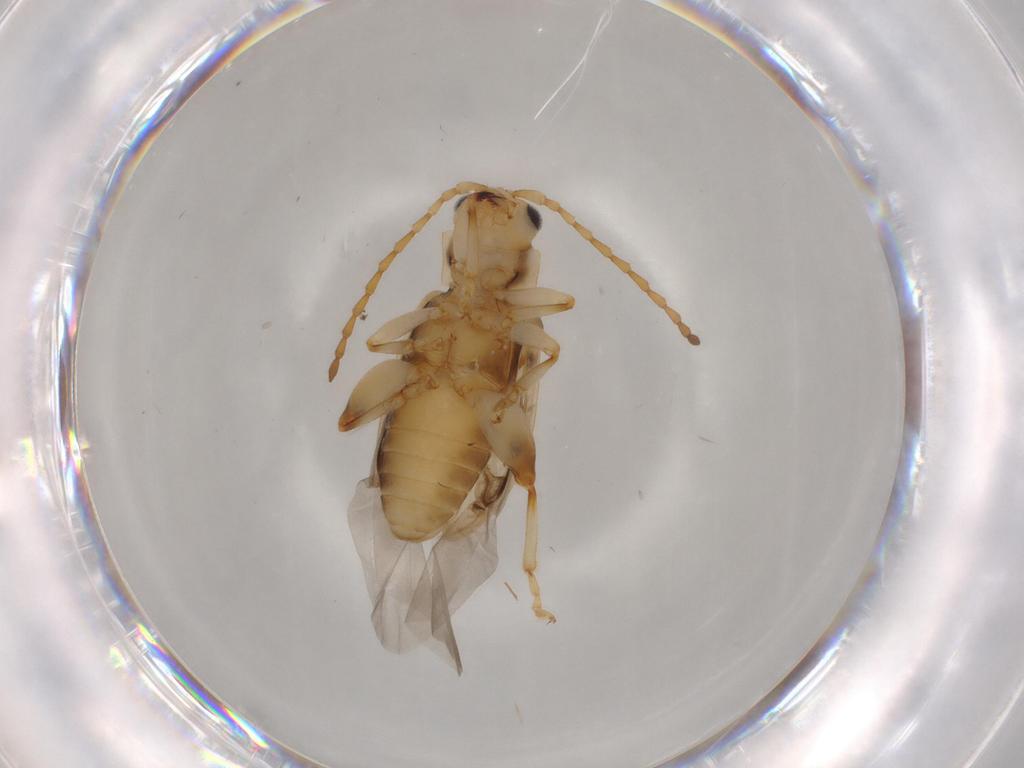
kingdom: Animalia
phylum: Arthropoda
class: Insecta
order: Coleoptera
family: Chrysomelidae
